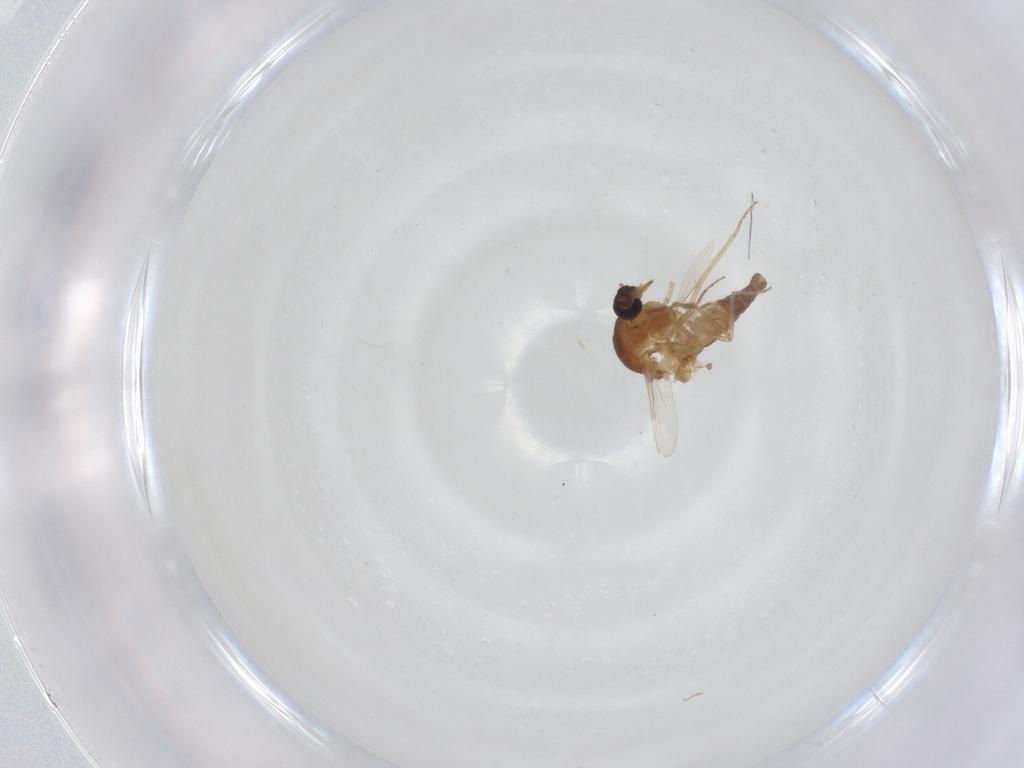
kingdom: Animalia
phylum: Arthropoda
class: Insecta
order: Diptera
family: Ceratopogonidae
